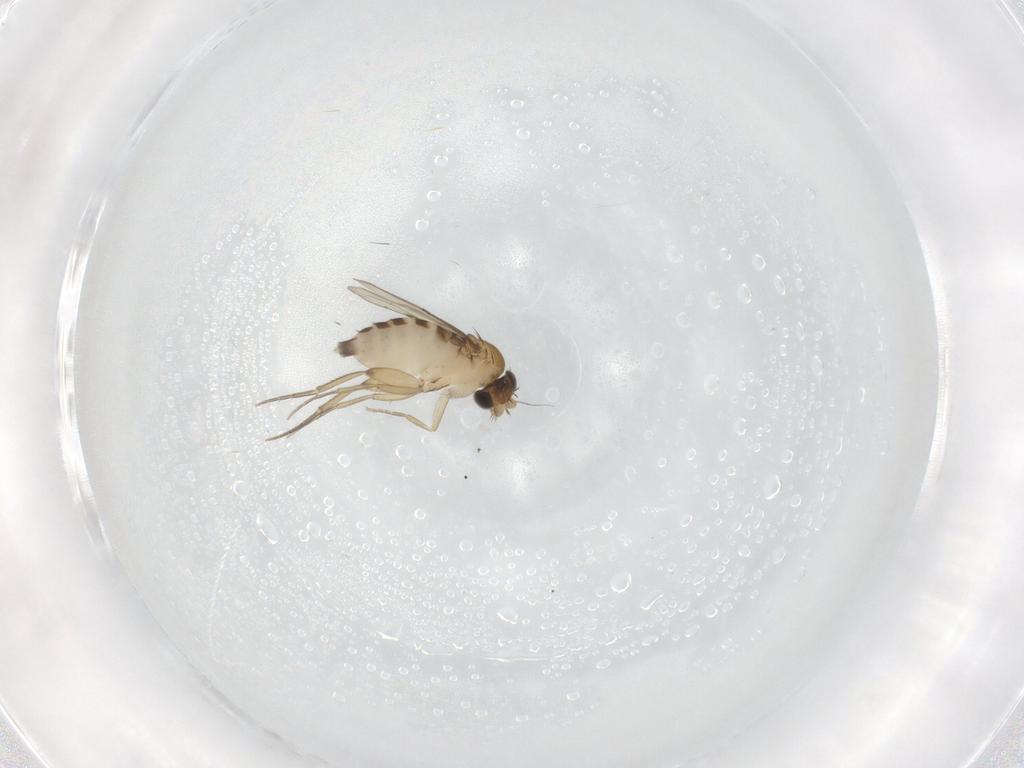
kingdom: Animalia
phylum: Arthropoda
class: Insecta
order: Diptera
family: Phoridae
